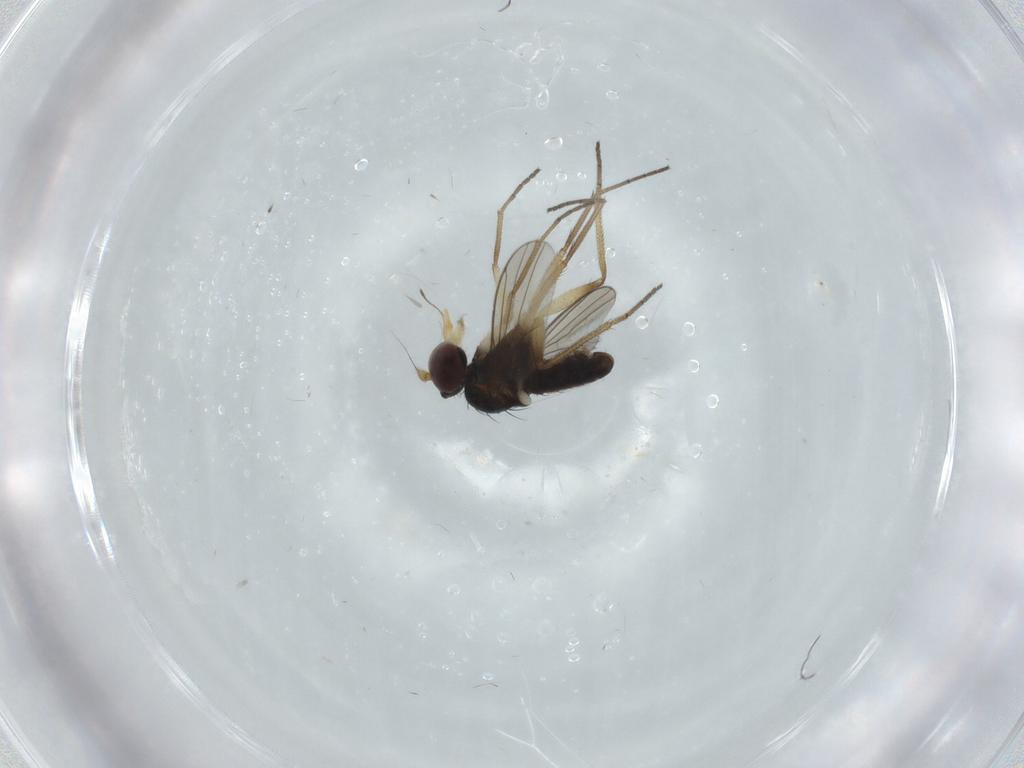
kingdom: Animalia
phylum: Arthropoda
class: Insecta
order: Diptera
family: Dolichopodidae
